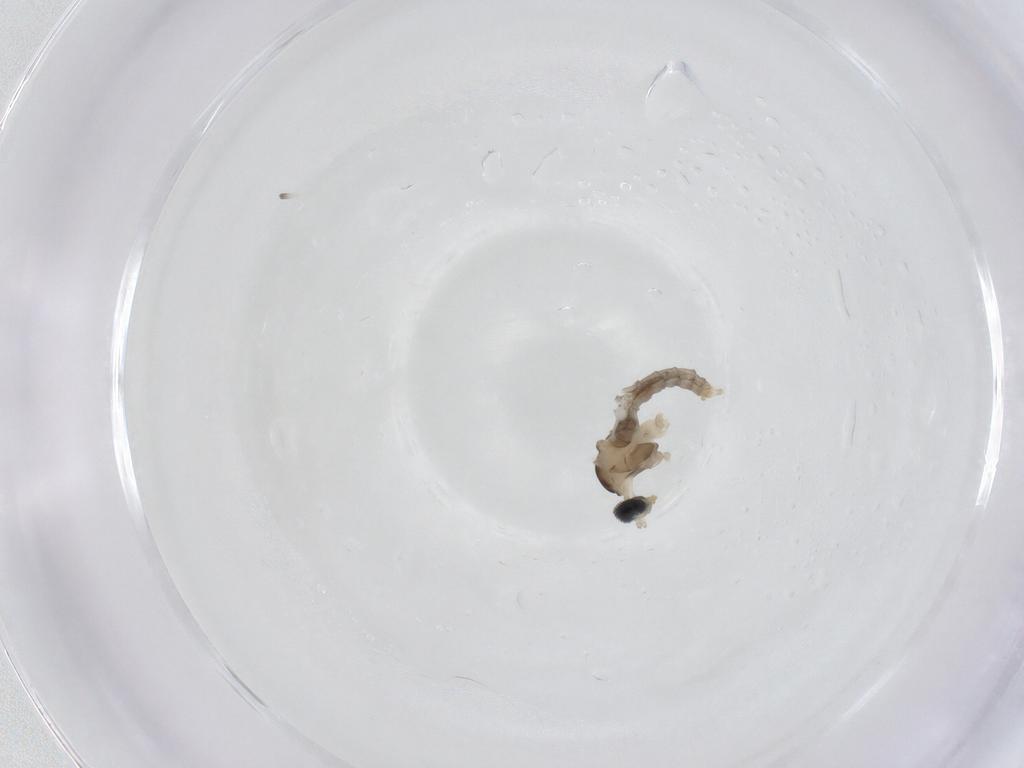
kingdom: Animalia
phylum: Arthropoda
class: Insecta
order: Diptera
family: Cecidomyiidae
